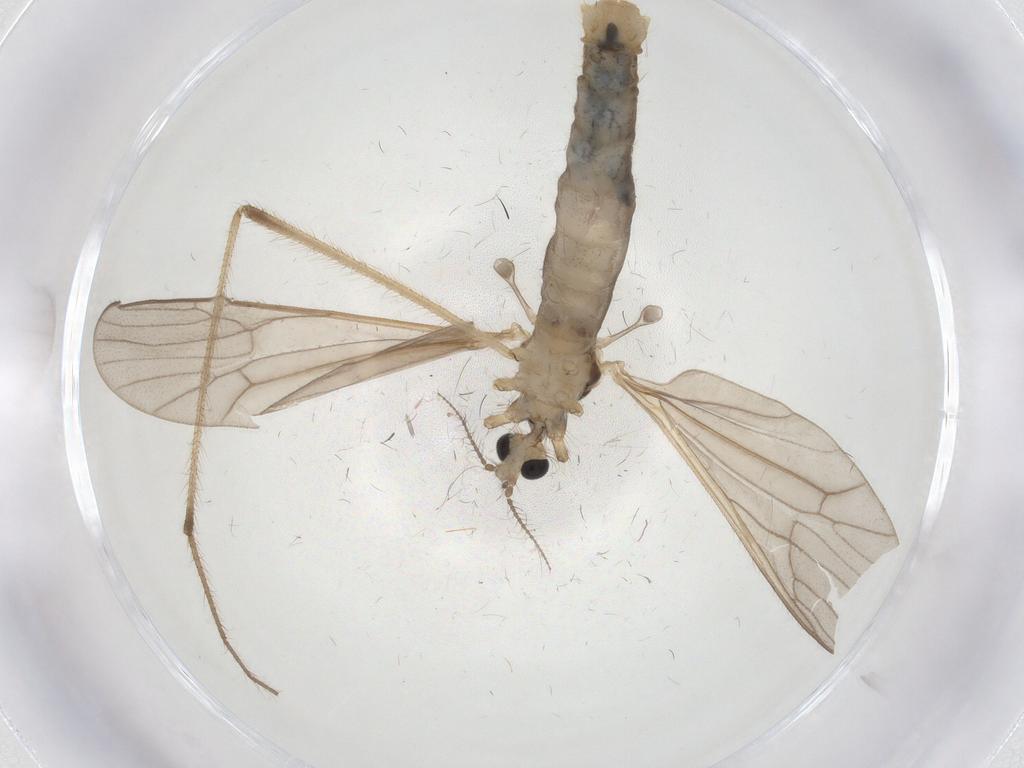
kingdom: Animalia
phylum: Arthropoda
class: Insecta
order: Diptera
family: Limoniidae
